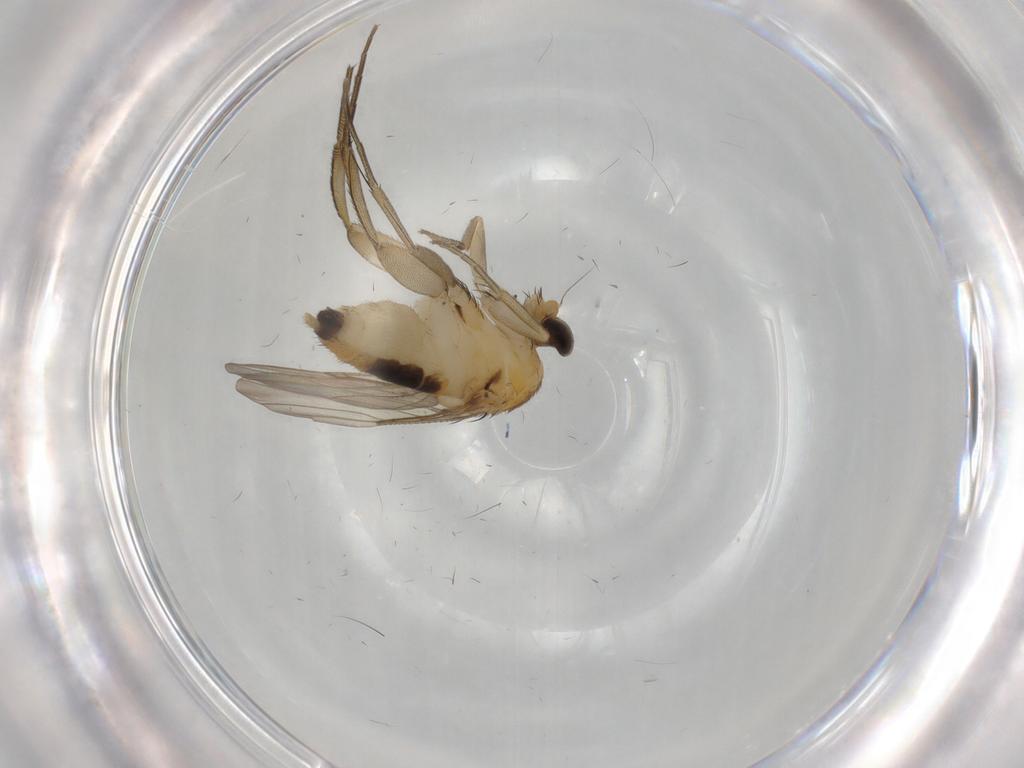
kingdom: Animalia
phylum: Arthropoda
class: Insecta
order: Diptera
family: Phoridae
